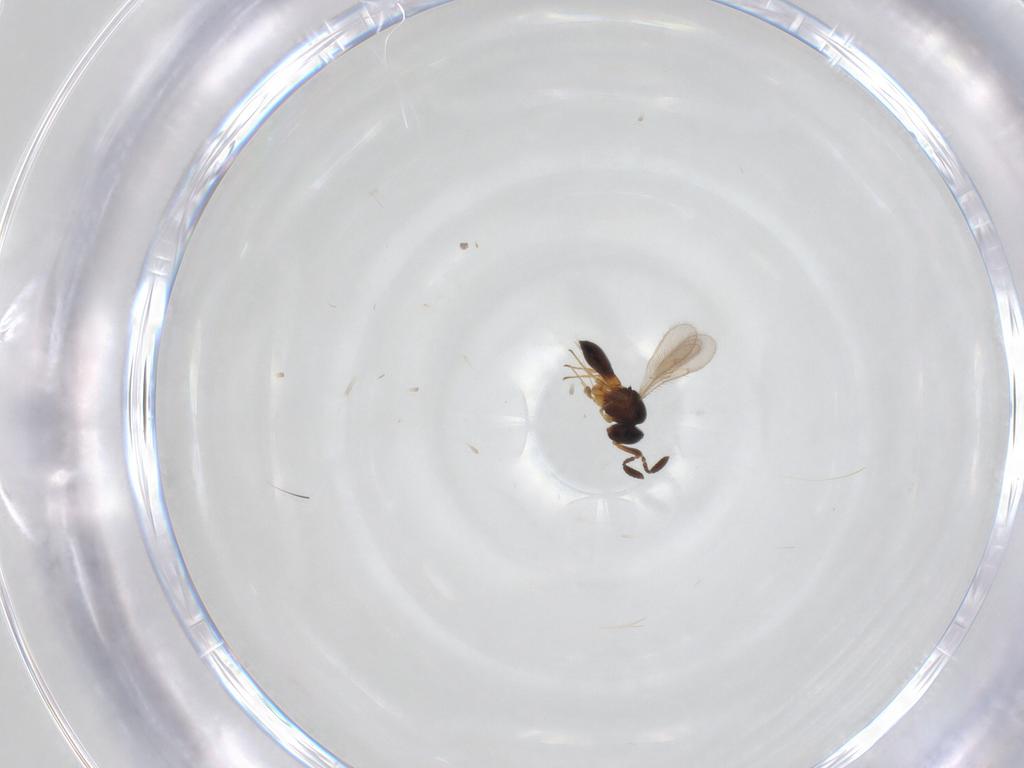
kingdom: Animalia
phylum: Arthropoda
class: Insecta
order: Hymenoptera
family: Scelionidae
